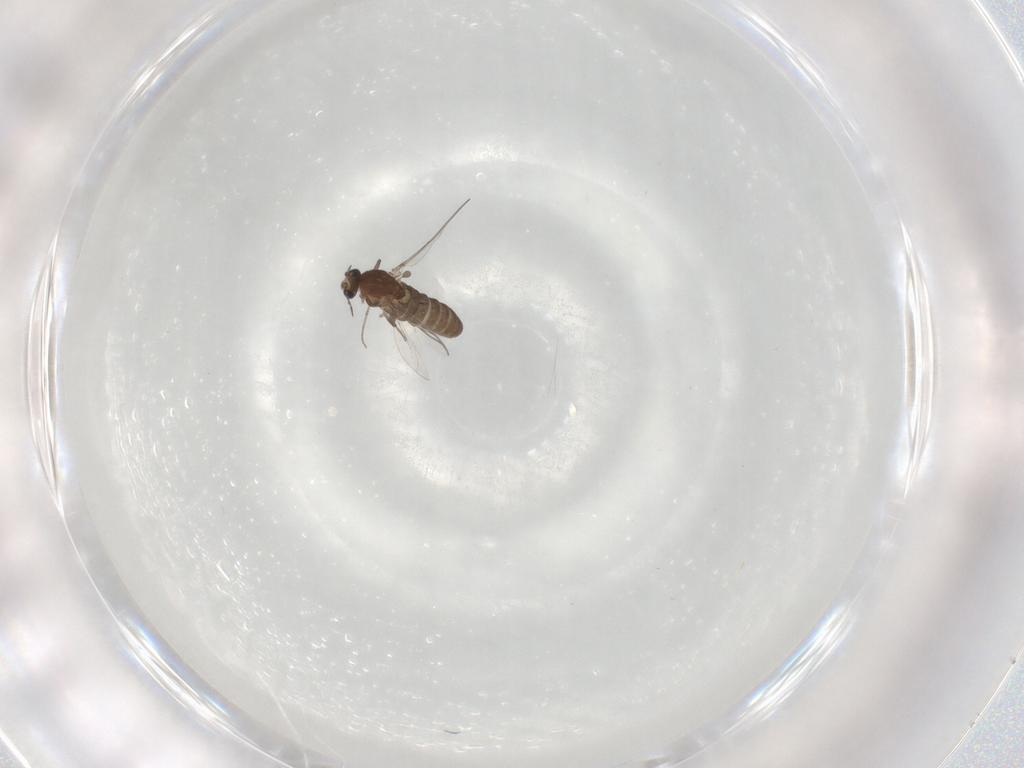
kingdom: Animalia
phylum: Arthropoda
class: Insecta
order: Diptera
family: Chironomidae
